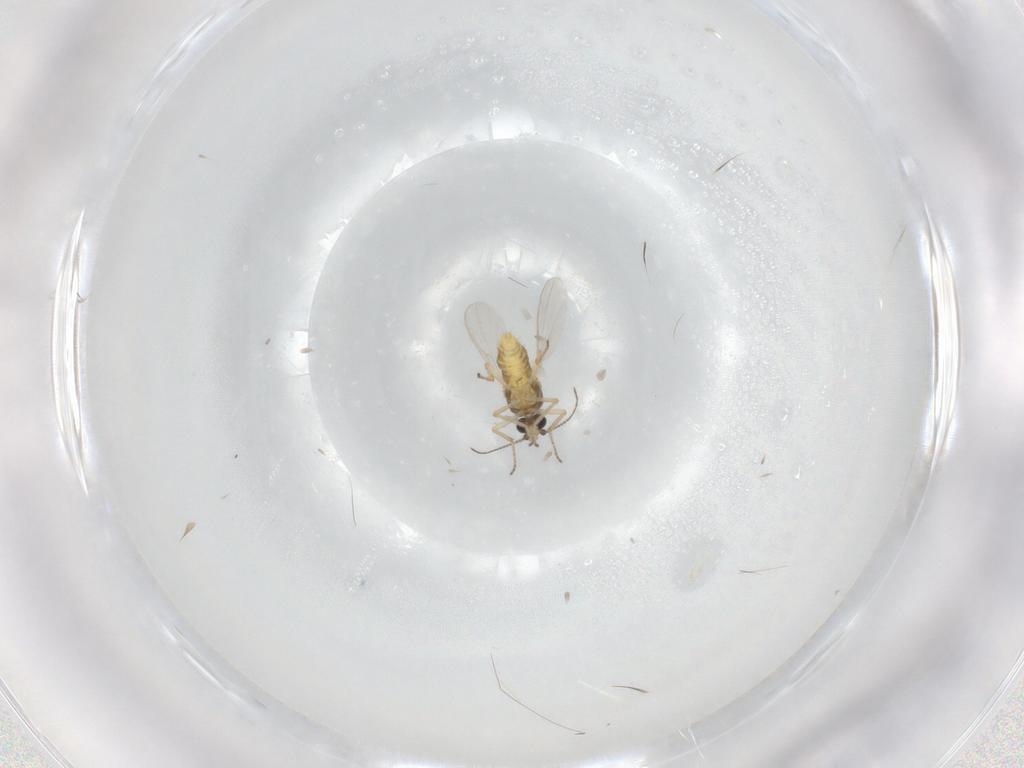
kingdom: Animalia
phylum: Arthropoda
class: Insecta
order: Diptera
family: Ceratopogonidae
